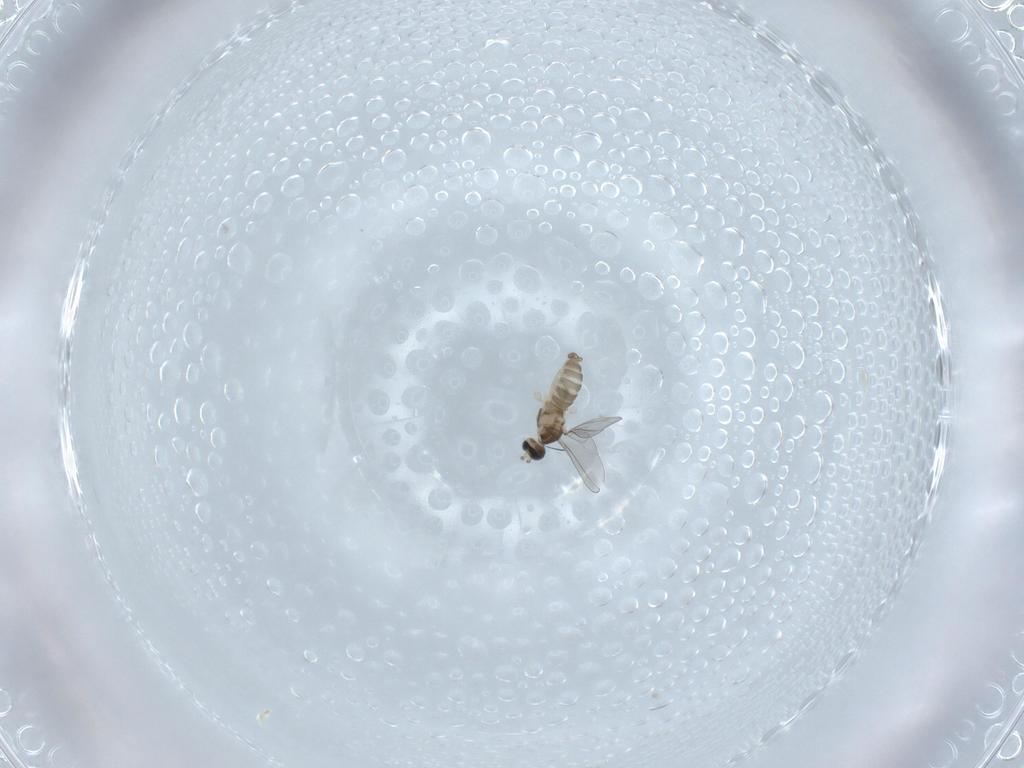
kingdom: Animalia
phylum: Arthropoda
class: Insecta
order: Diptera
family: Cecidomyiidae
